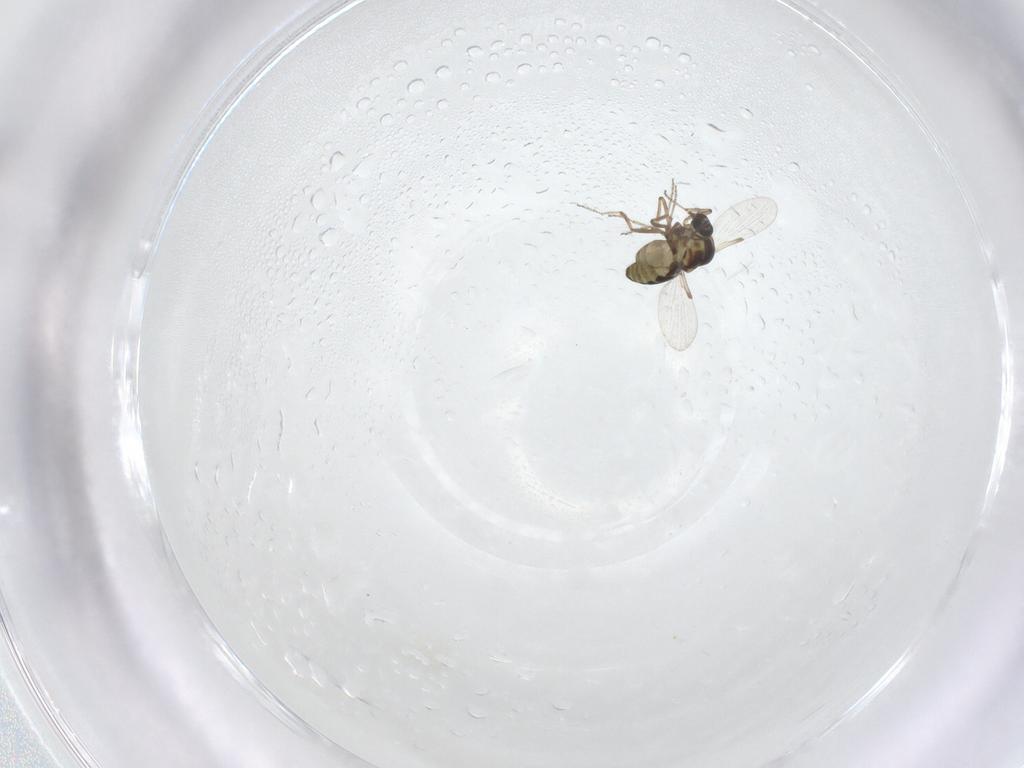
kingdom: Animalia
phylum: Arthropoda
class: Insecta
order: Diptera
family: Ceratopogonidae
